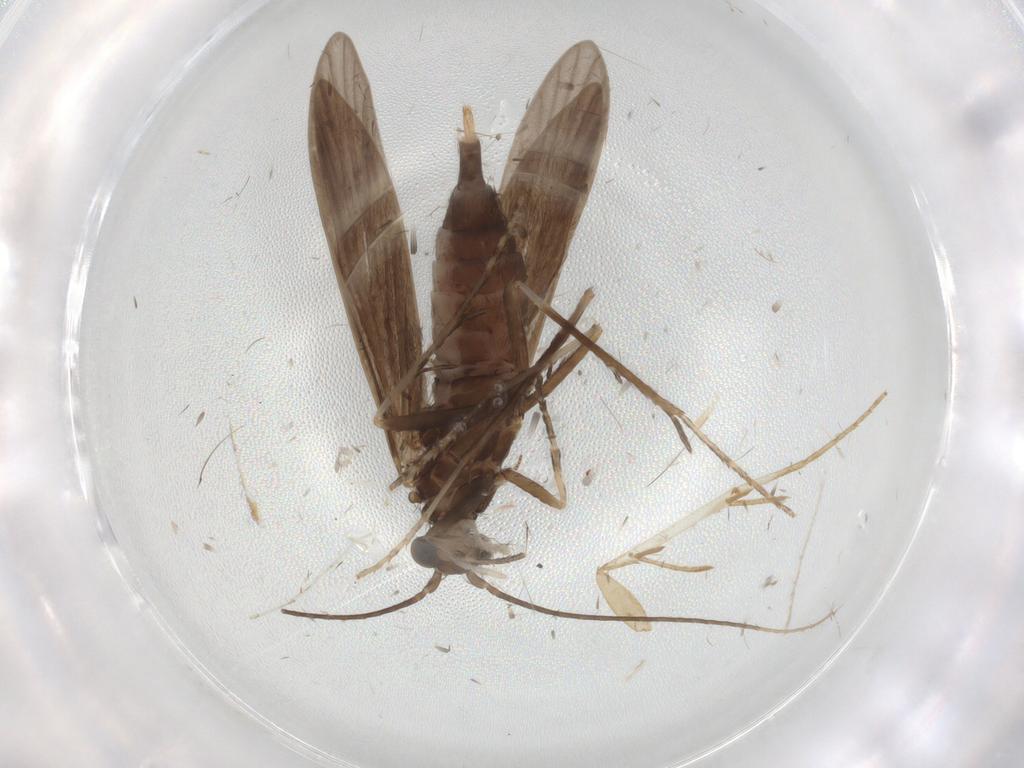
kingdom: Animalia
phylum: Arthropoda
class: Insecta
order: Trichoptera
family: Xiphocentronidae
